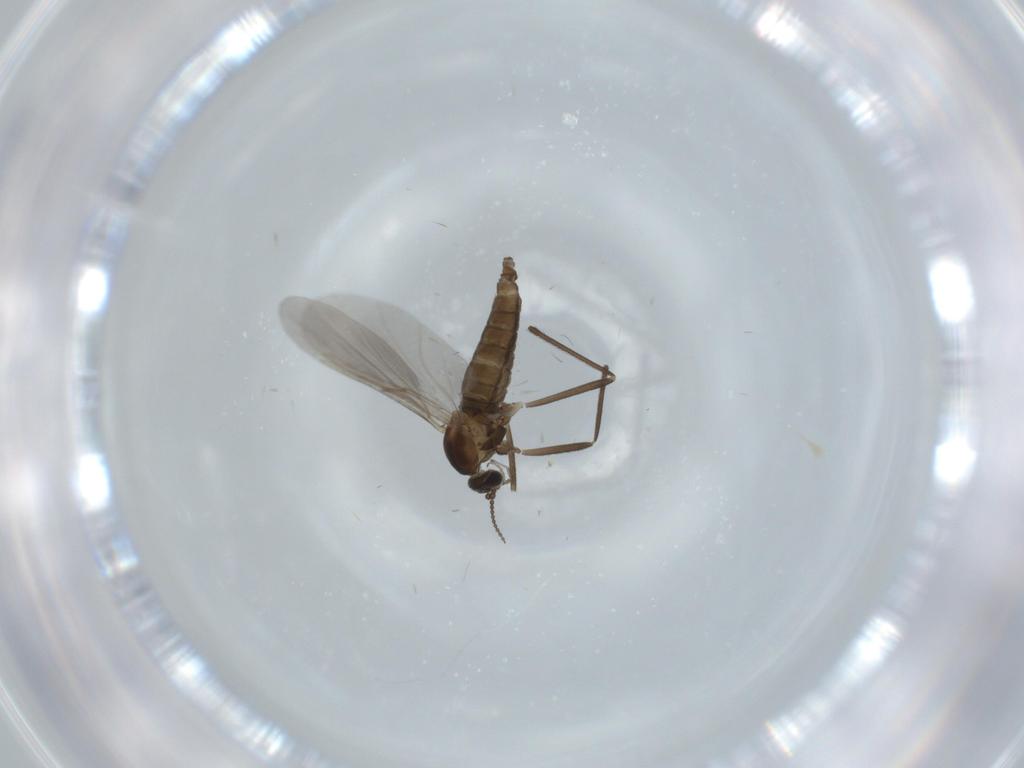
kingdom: Animalia
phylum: Arthropoda
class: Insecta
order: Diptera
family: Cecidomyiidae
